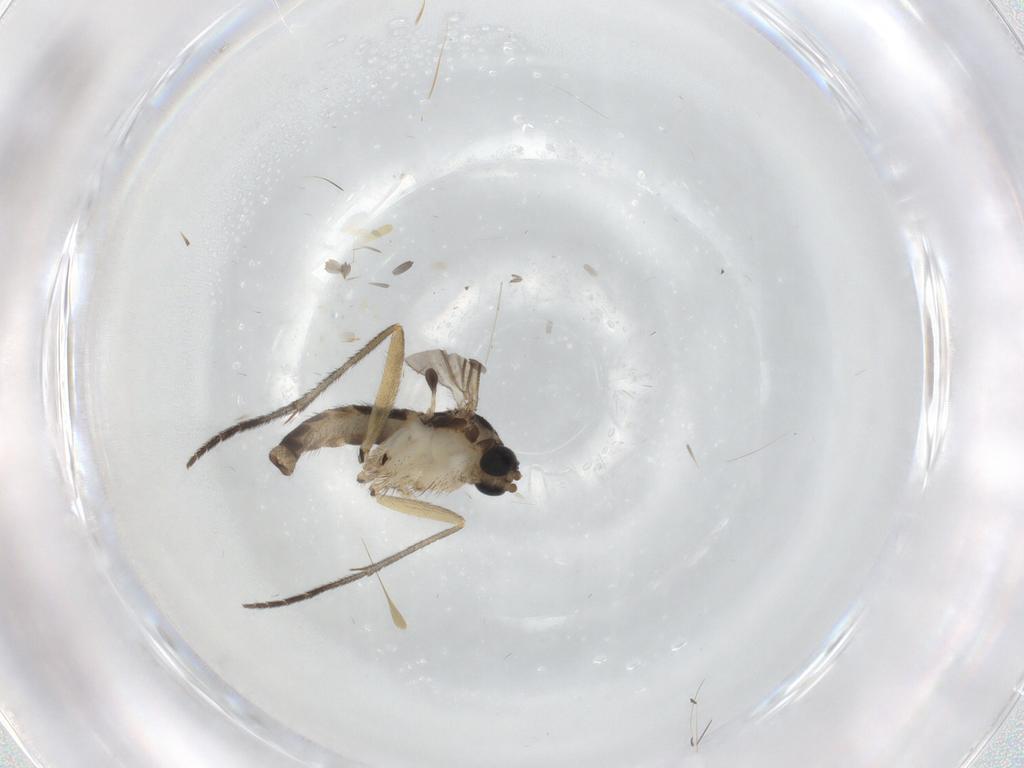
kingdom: Animalia
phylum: Arthropoda
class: Insecta
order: Diptera
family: Sciaridae
